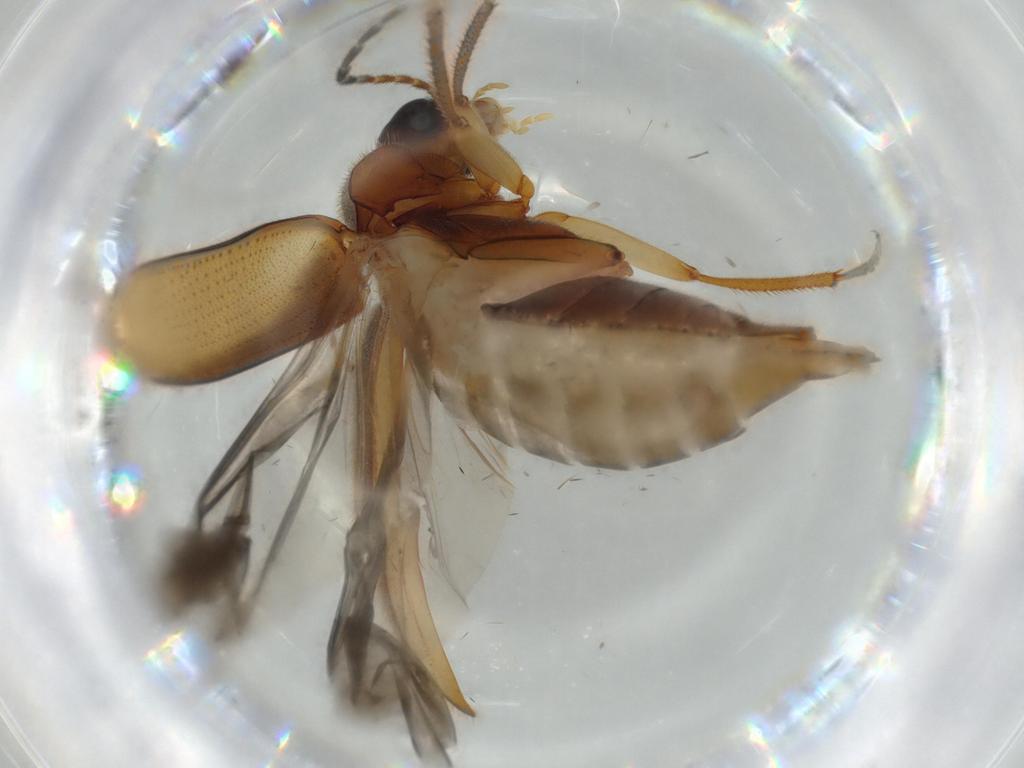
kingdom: Animalia
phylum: Arthropoda
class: Insecta
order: Coleoptera
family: Ptilodactylidae
